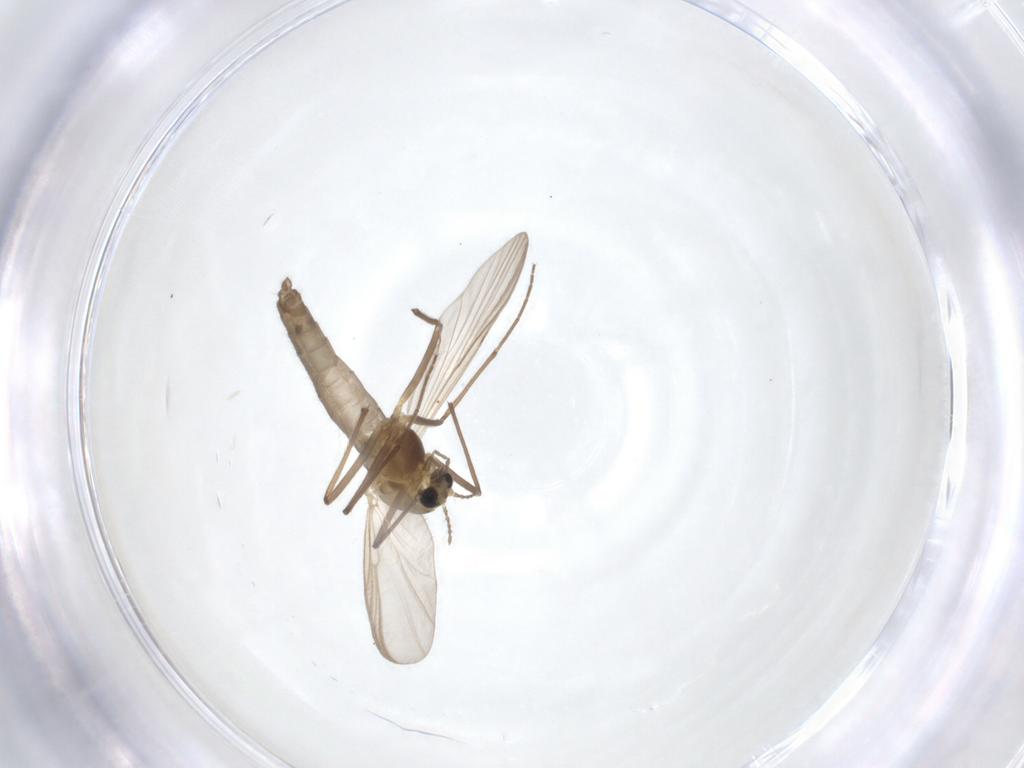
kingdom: Animalia
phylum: Arthropoda
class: Insecta
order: Diptera
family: Chironomidae
